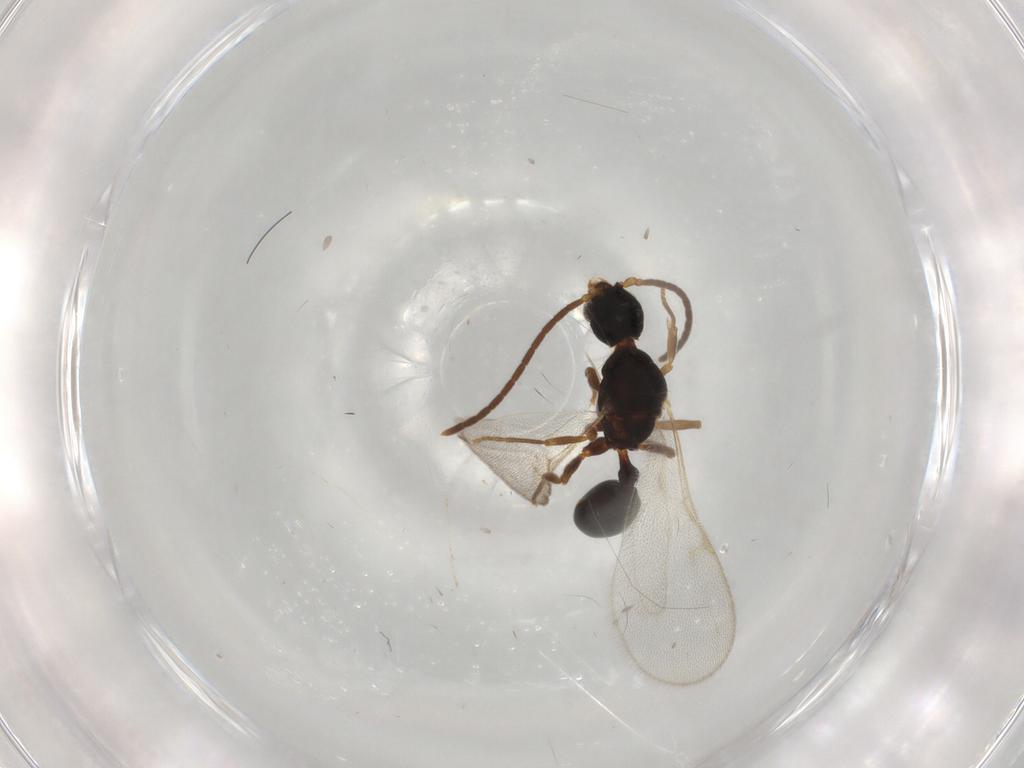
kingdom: Animalia
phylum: Arthropoda
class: Insecta
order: Hymenoptera
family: Scelionidae
